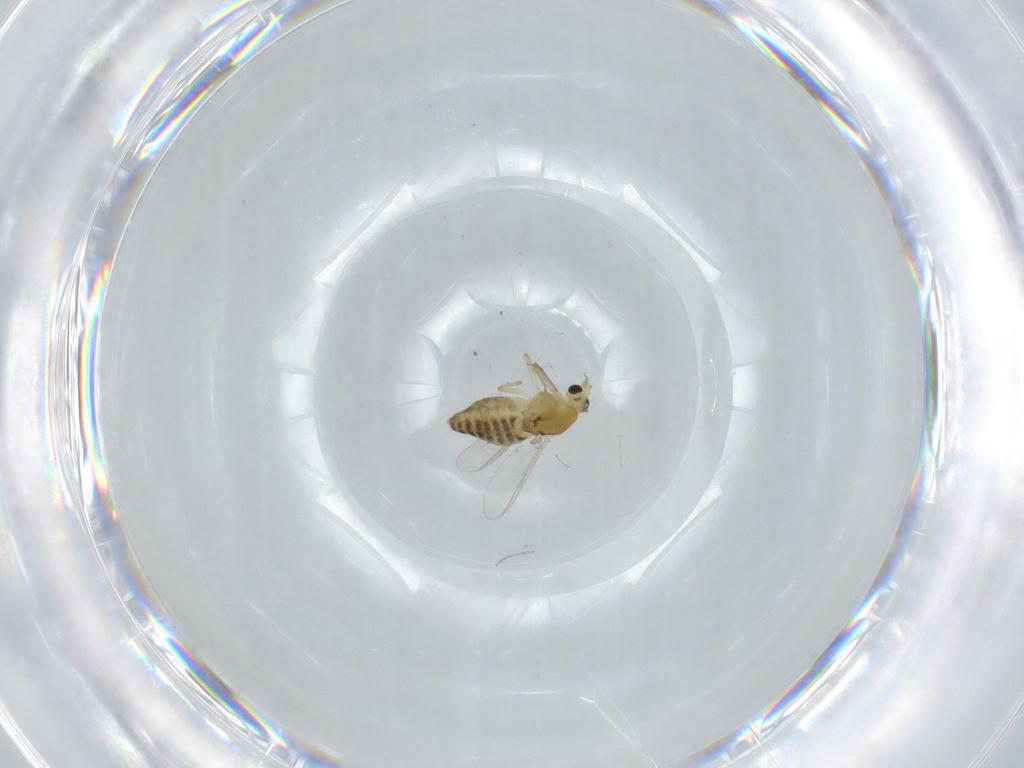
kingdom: Animalia
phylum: Arthropoda
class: Insecta
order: Diptera
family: Chironomidae
